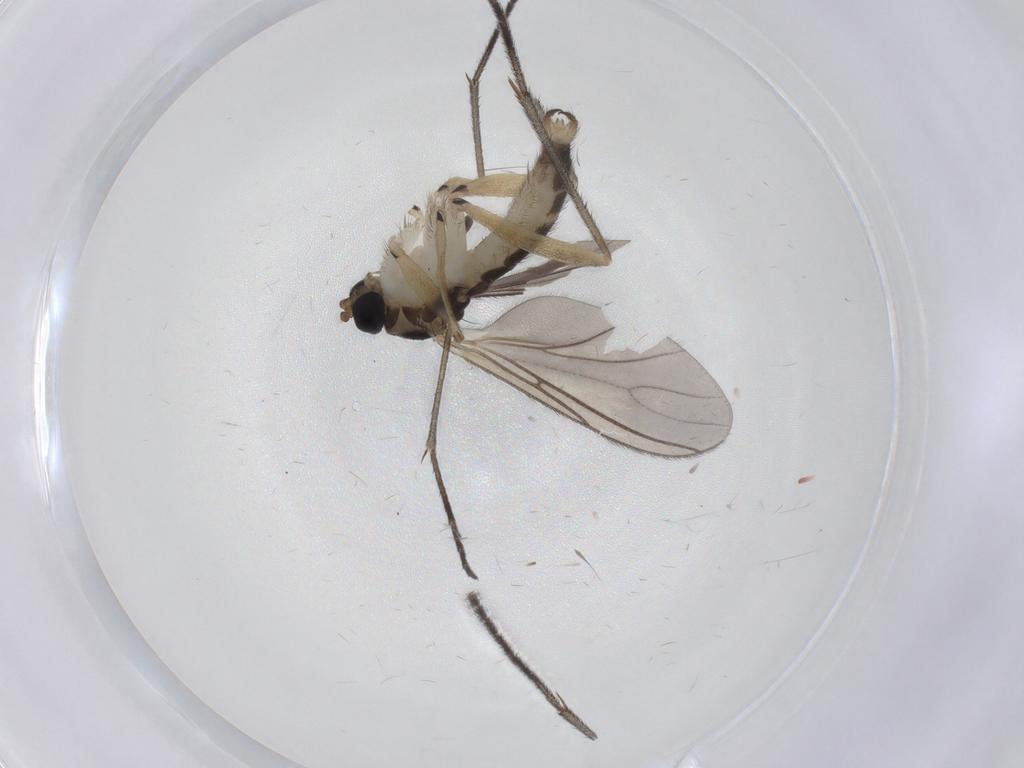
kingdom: Animalia
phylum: Arthropoda
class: Insecta
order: Diptera
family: Sciaridae
